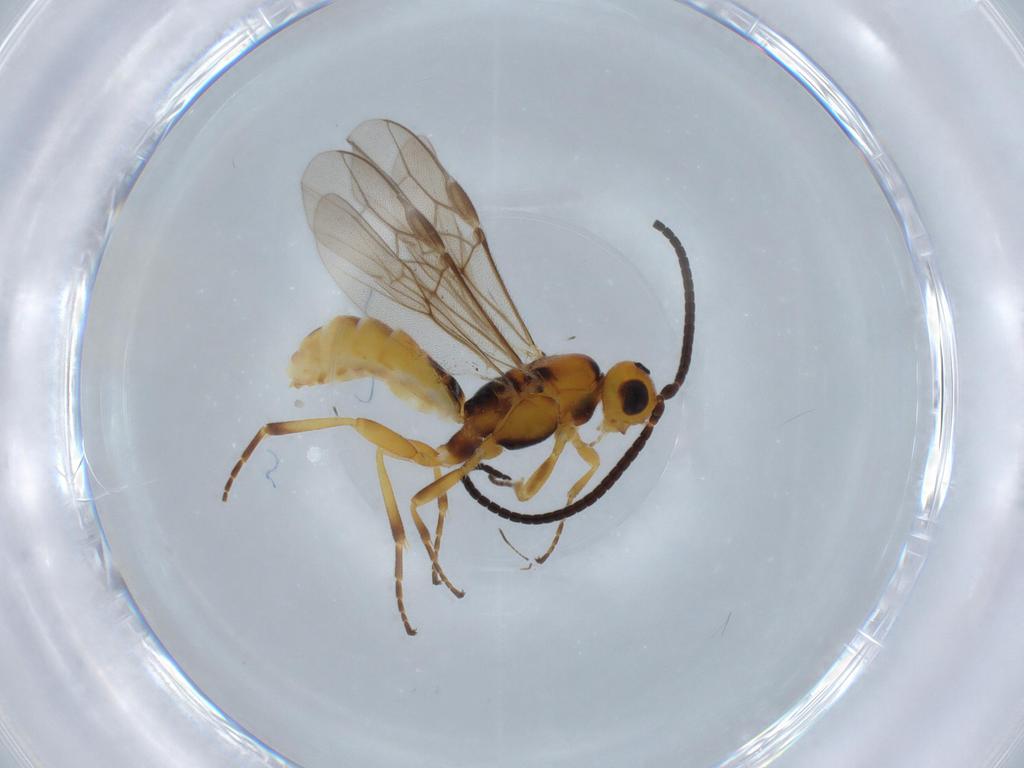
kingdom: Animalia
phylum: Arthropoda
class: Insecta
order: Hymenoptera
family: Braconidae
